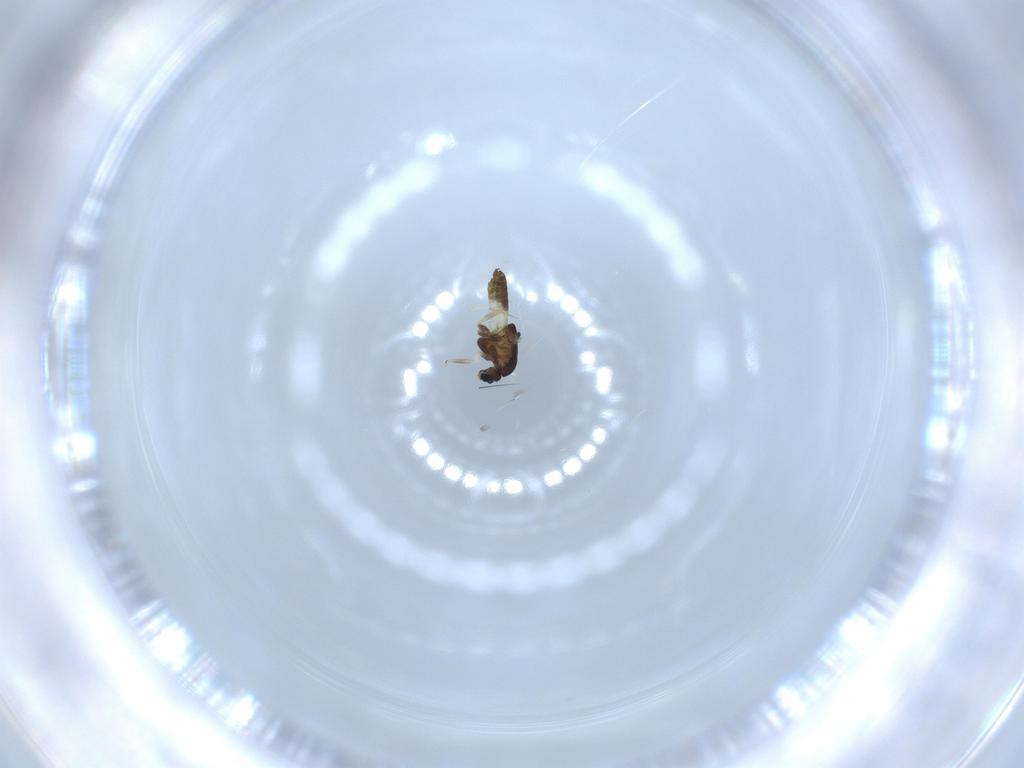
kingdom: Animalia
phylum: Arthropoda
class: Insecta
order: Diptera
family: Chironomidae
